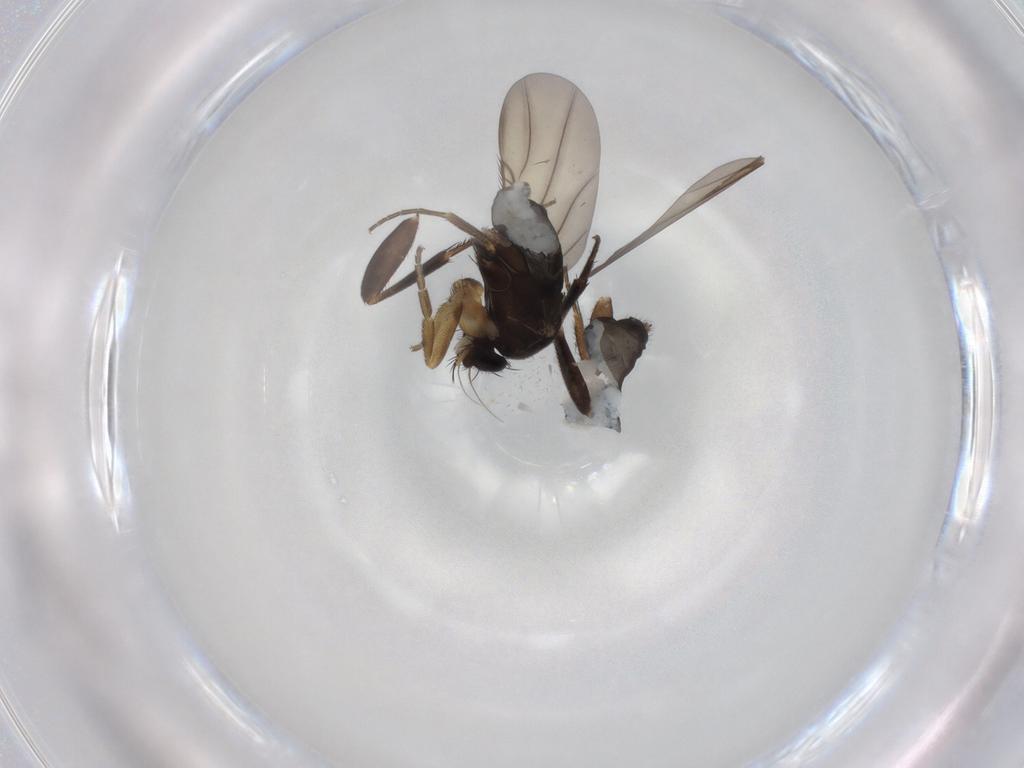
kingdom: Animalia
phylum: Arthropoda
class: Insecta
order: Diptera
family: Phoridae
